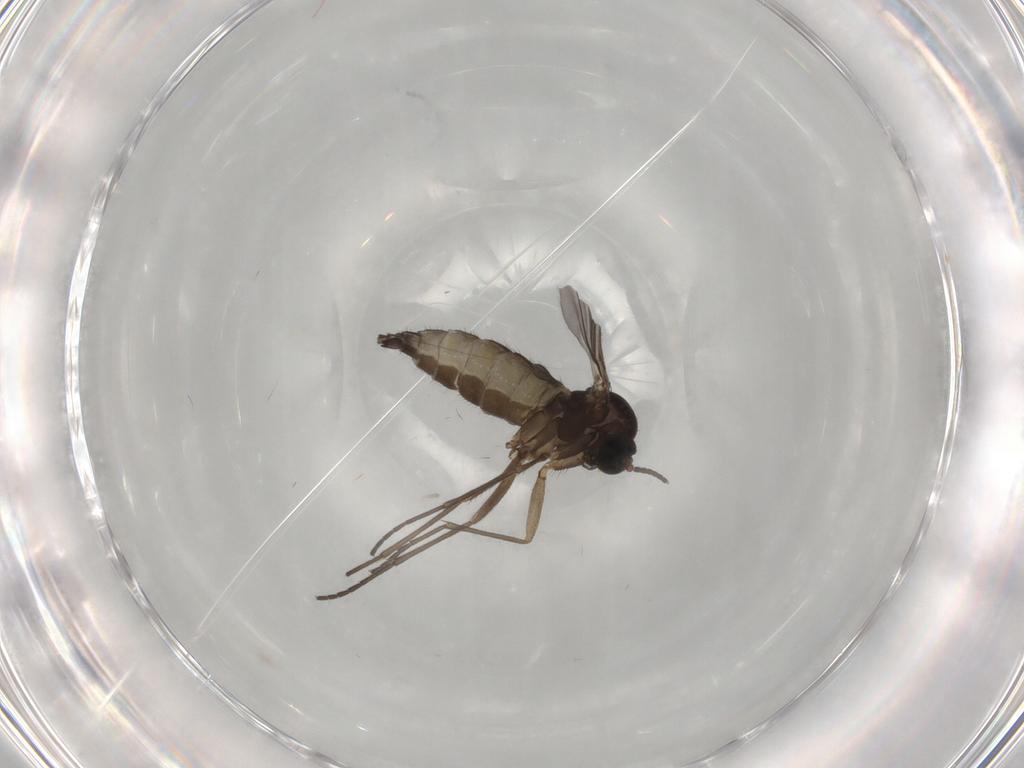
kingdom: Animalia
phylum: Arthropoda
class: Insecta
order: Diptera
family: Sciaridae
